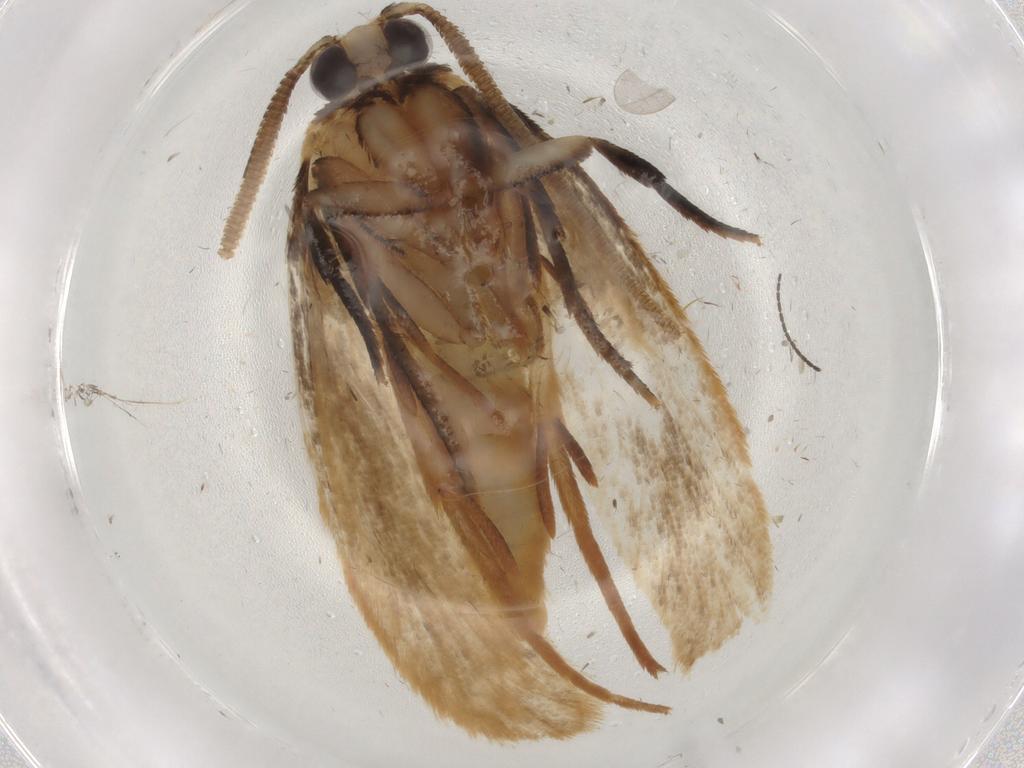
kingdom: Animalia
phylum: Arthropoda
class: Insecta
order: Lepidoptera
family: Tineidae
